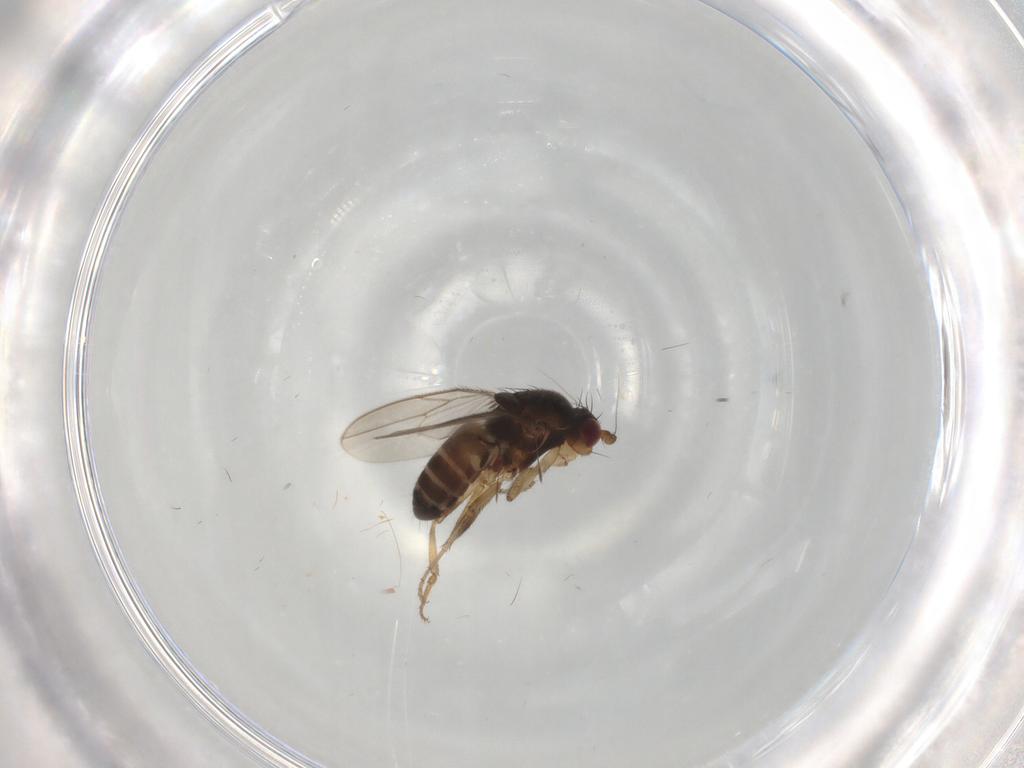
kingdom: Animalia
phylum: Arthropoda
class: Insecta
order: Diptera
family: Sphaeroceridae
